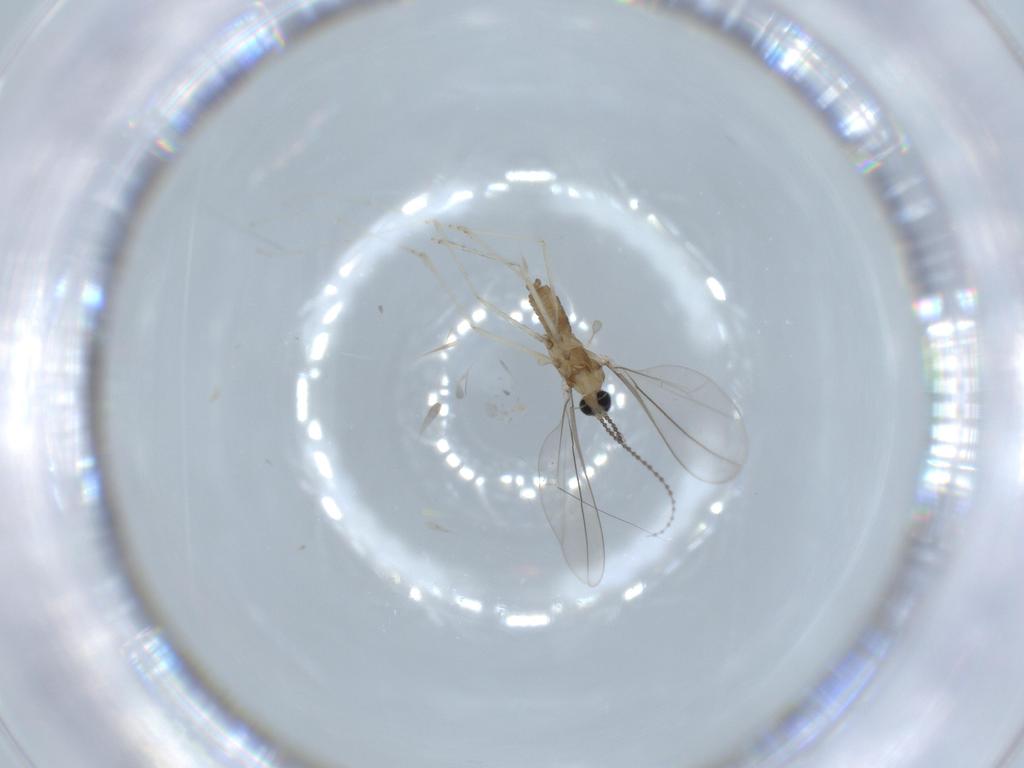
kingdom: Animalia
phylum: Arthropoda
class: Insecta
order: Diptera
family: Cecidomyiidae
